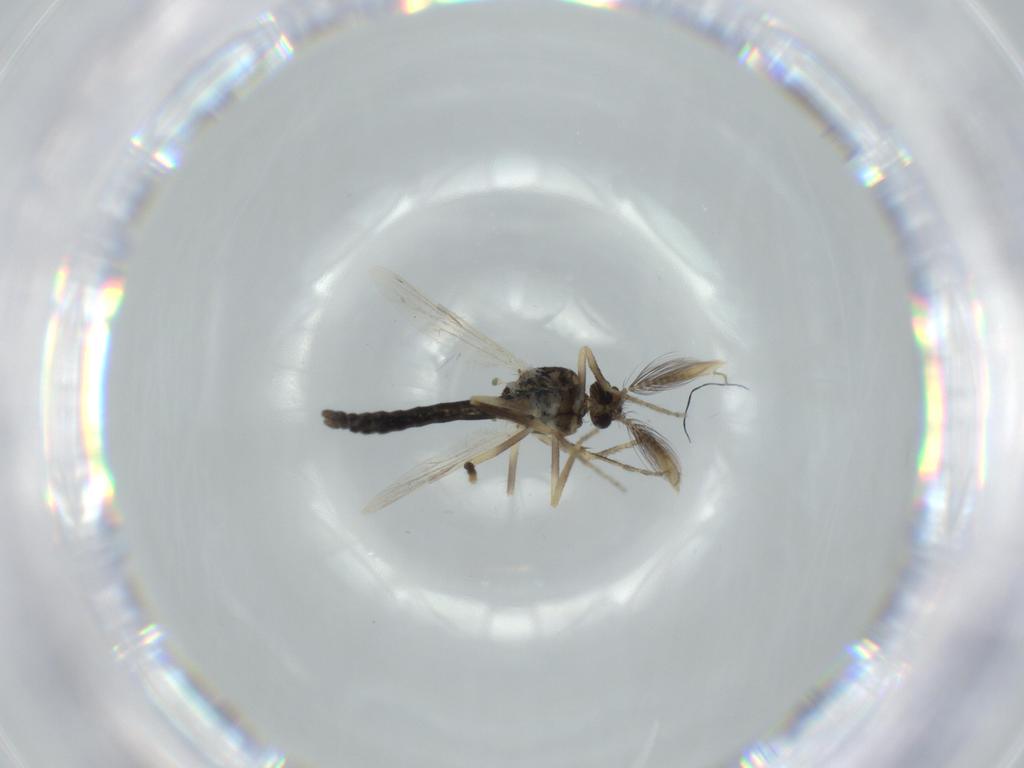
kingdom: Animalia
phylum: Arthropoda
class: Insecta
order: Diptera
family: Ceratopogonidae
